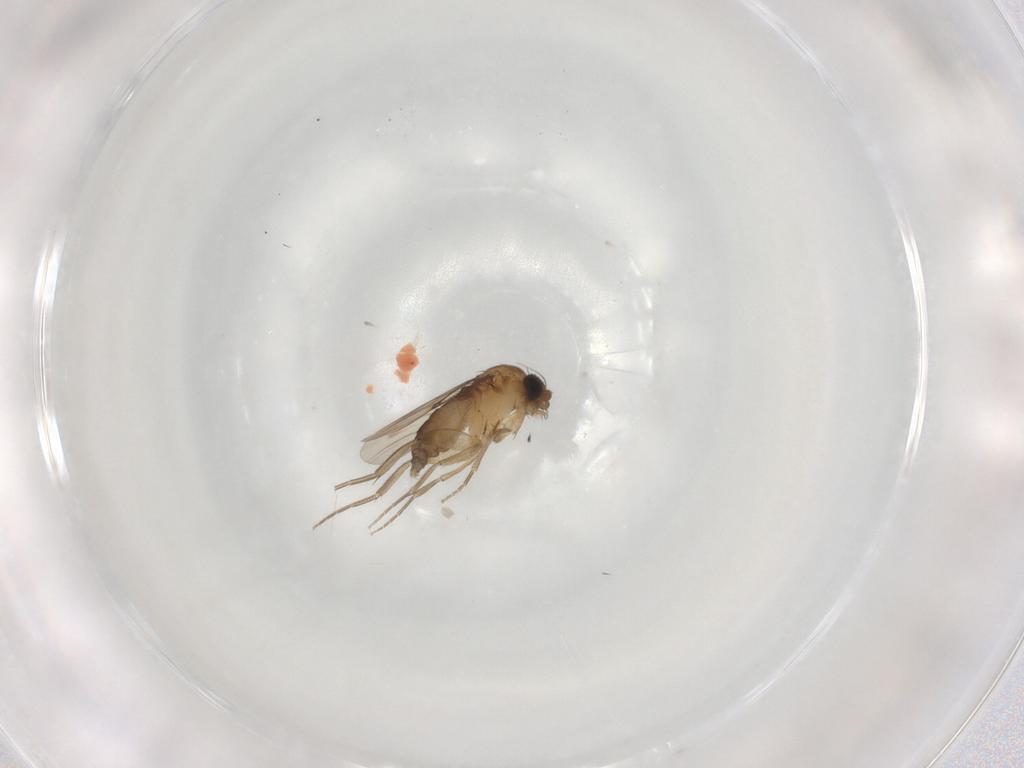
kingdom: Animalia
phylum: Arthropoda
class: Insecta
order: Diptera
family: Phoridae
